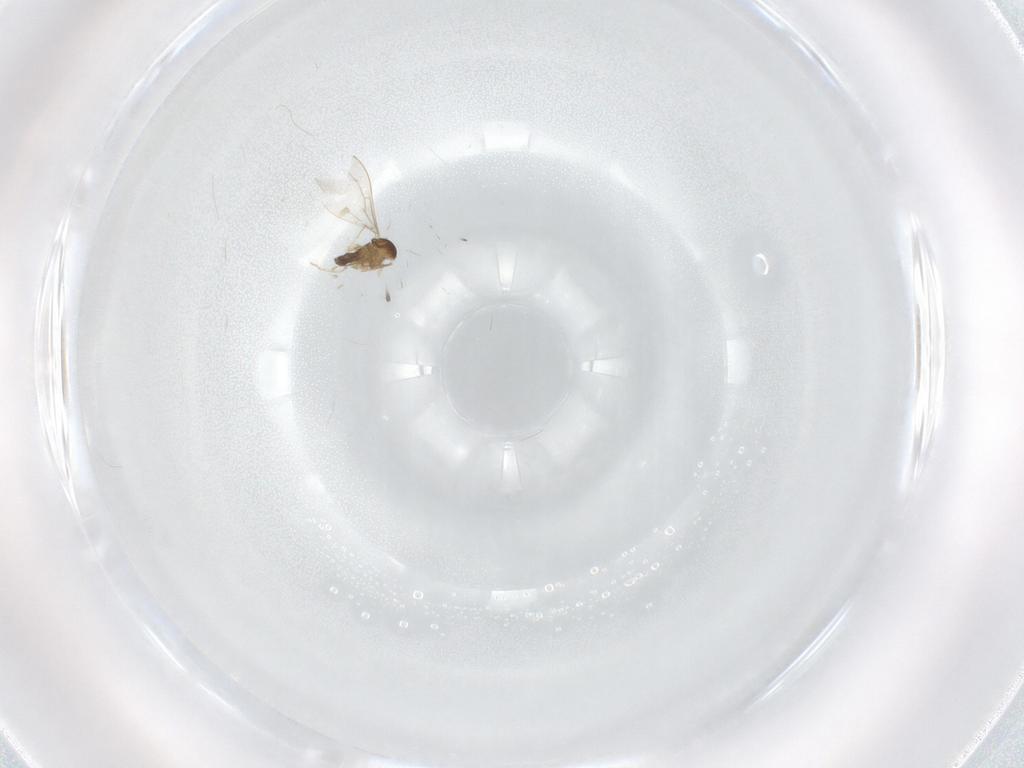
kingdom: Animalia
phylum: Arthropoda
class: Insecta
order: Diptera
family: Cecidomyiidae
